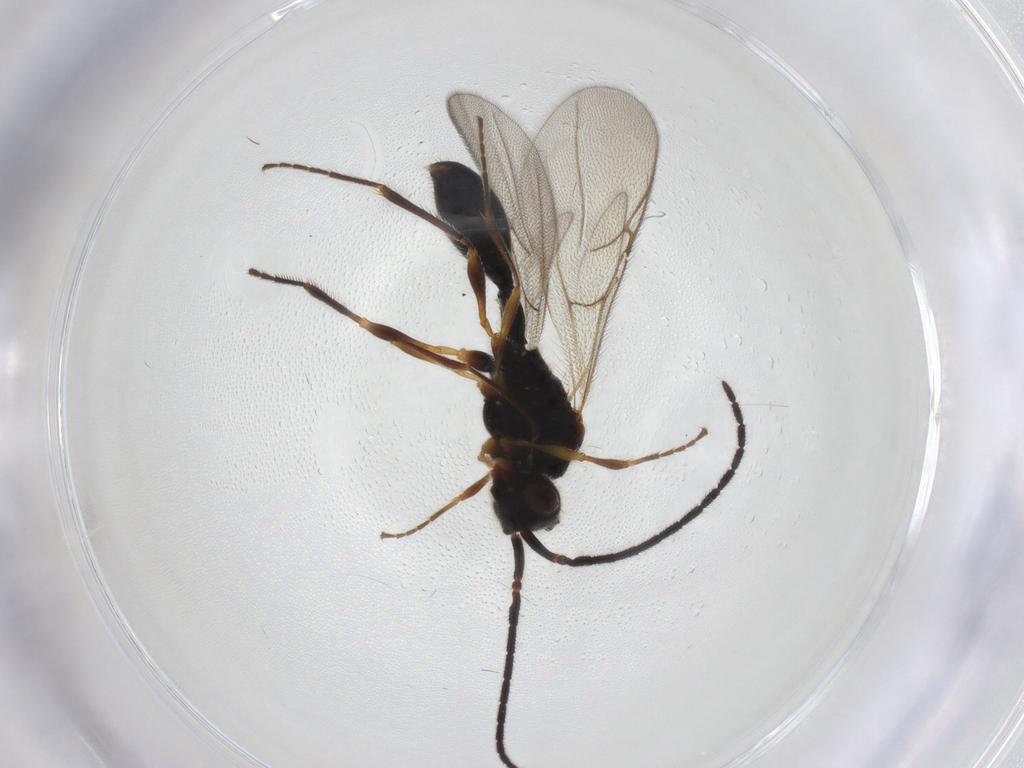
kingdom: Animalia
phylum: Arthropoda
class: Insecta
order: Hymenoptera
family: Diapriidae
